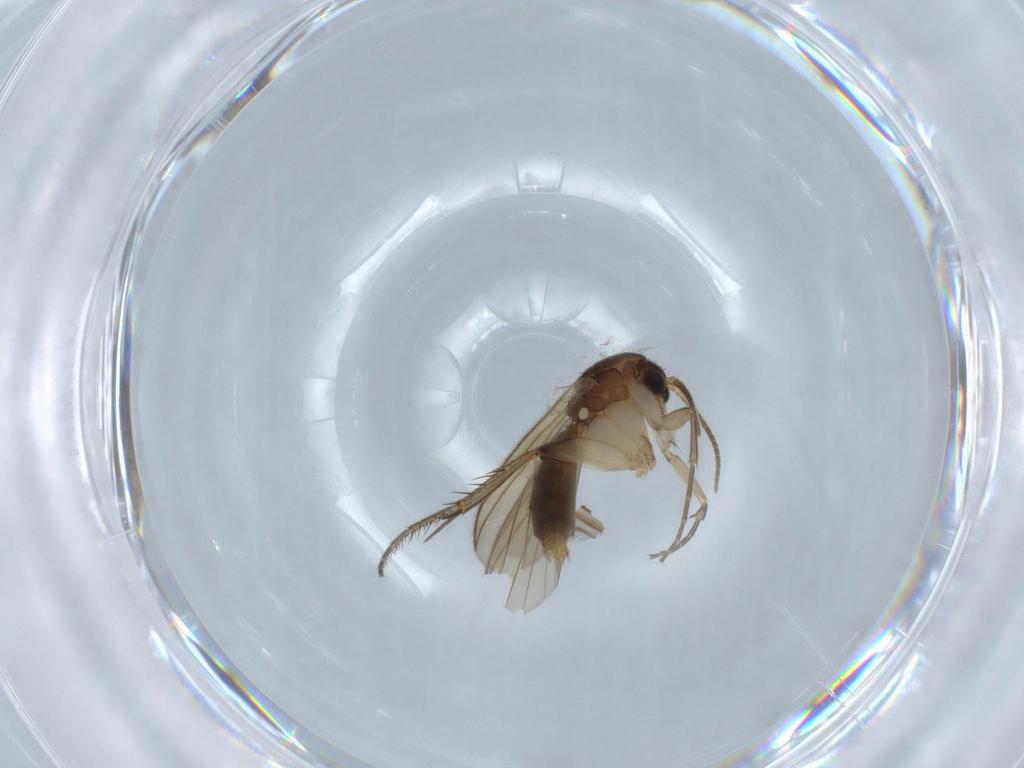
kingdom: Animalia
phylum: Arthropoda
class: Insecta
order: Diptera
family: Mycetophilidae
